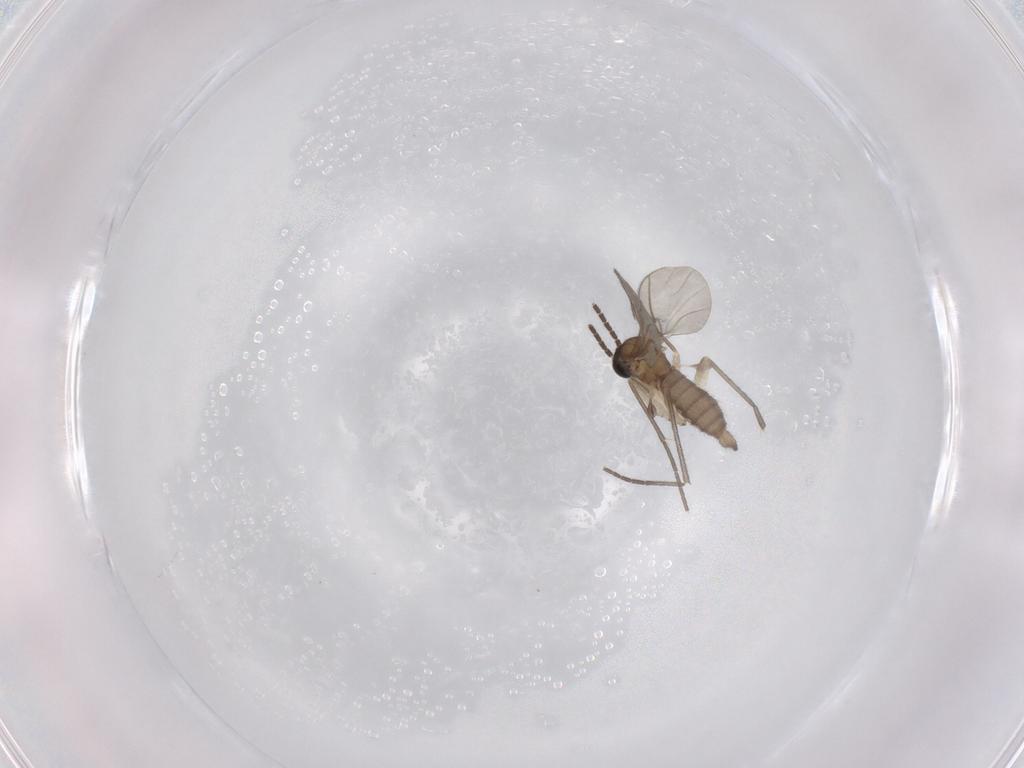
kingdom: Animalia
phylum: Arthropoda
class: Insecta
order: Diptera
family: Sciaridae
